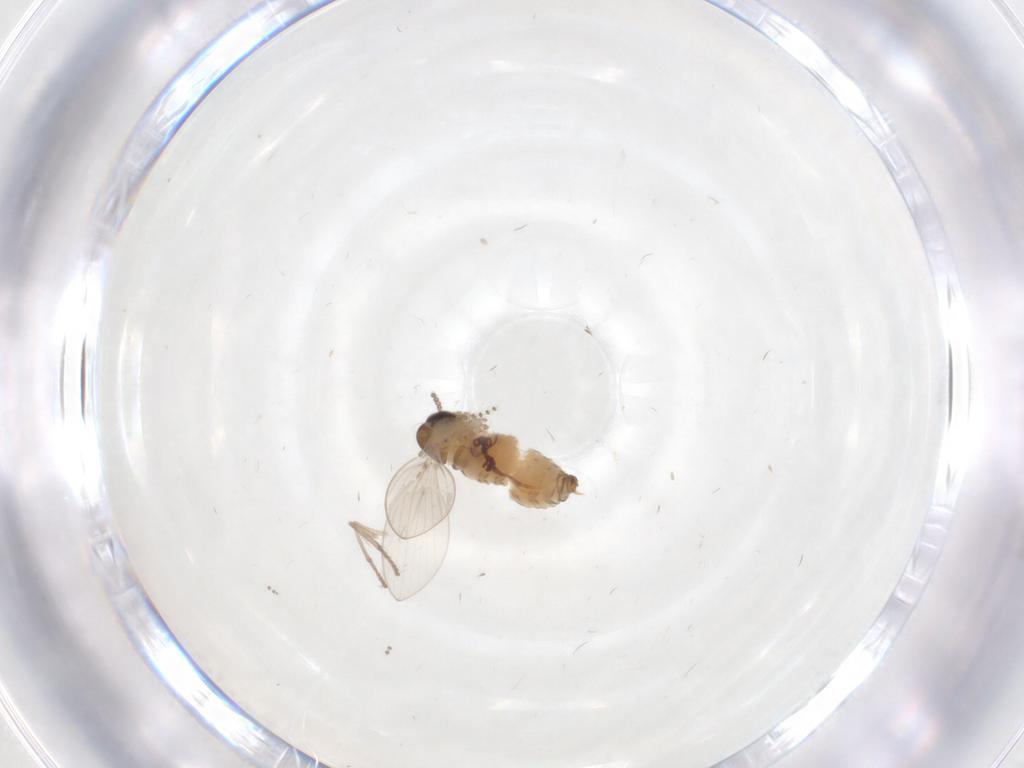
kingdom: Animalia
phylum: Arthropoda
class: Insecta
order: Diptera
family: Psychodidae
